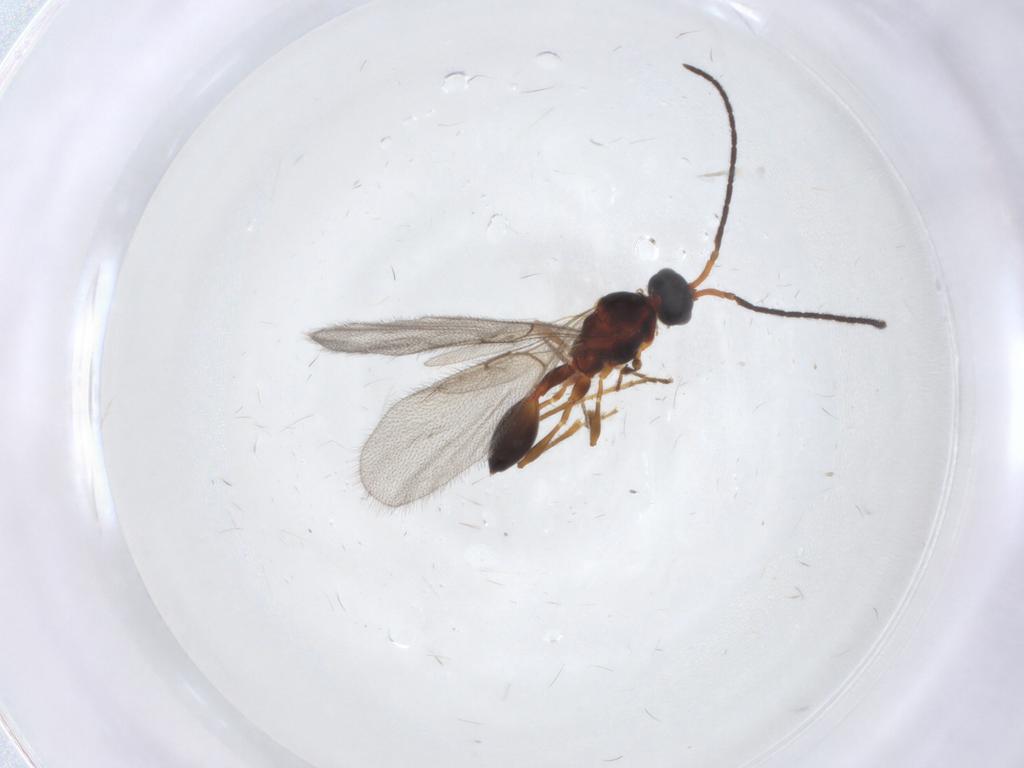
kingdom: Animalia
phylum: Arthropoda
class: Insecta
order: Hymenoptera
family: Diapriidae
